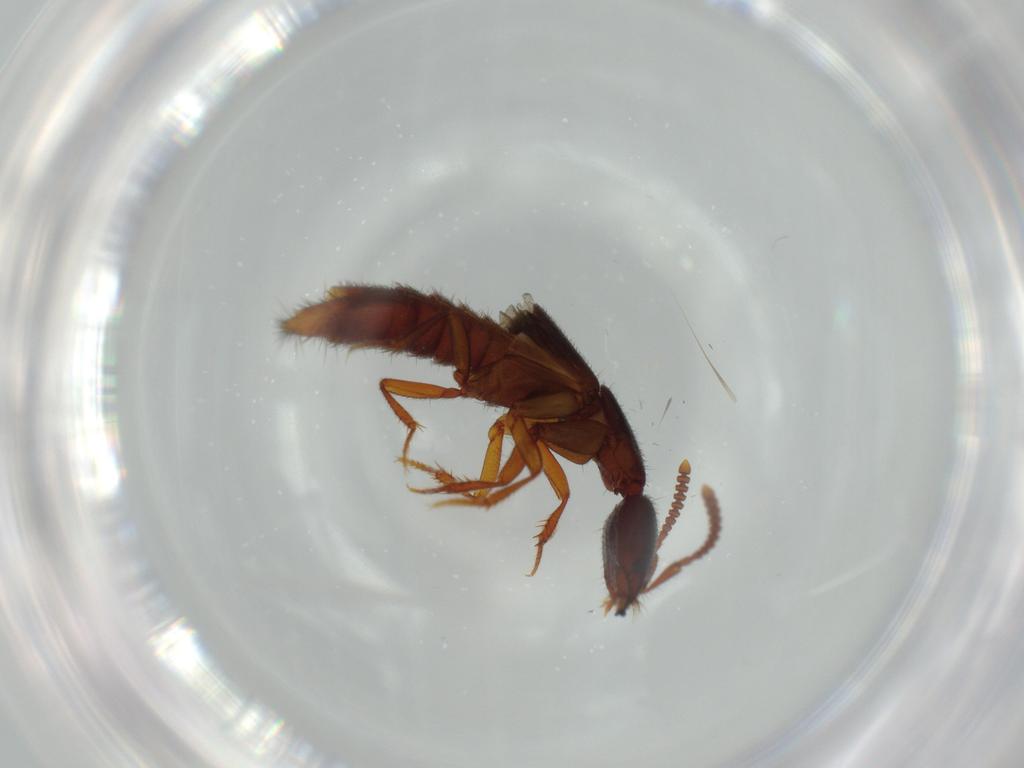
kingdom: Animalia
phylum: Arthropoda
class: Insecta
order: Coleoptera
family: Staphylinidae
